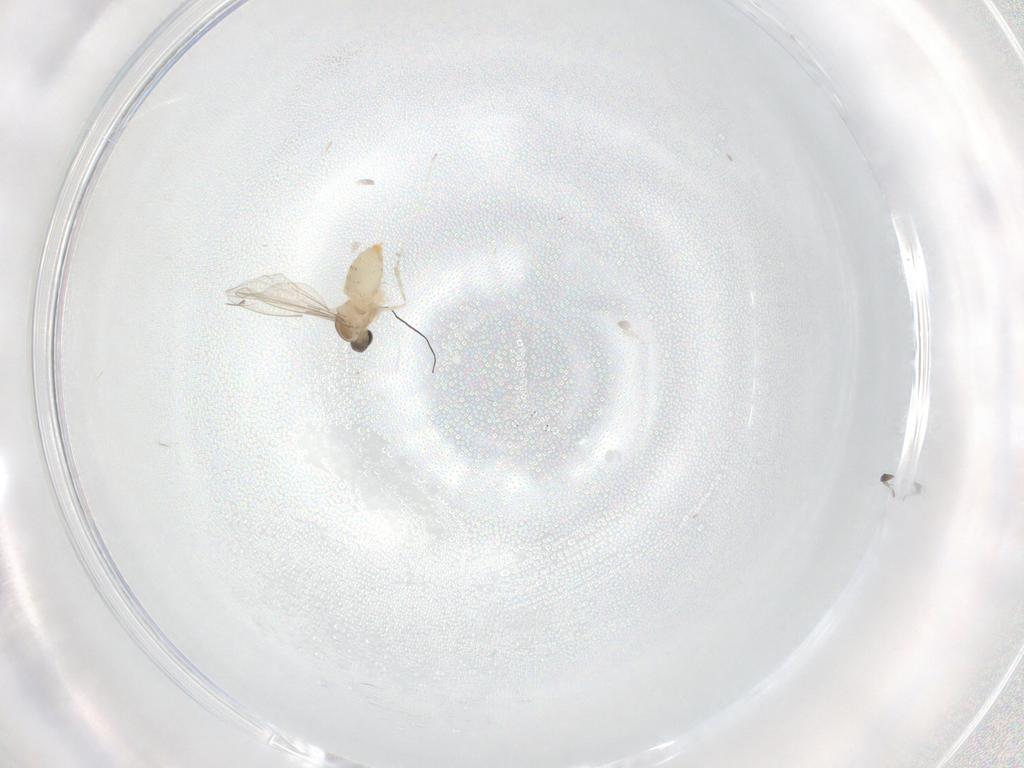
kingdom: Animalia
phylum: Arthropoda
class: Insecta
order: Diptera
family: Cecidomyiidae
